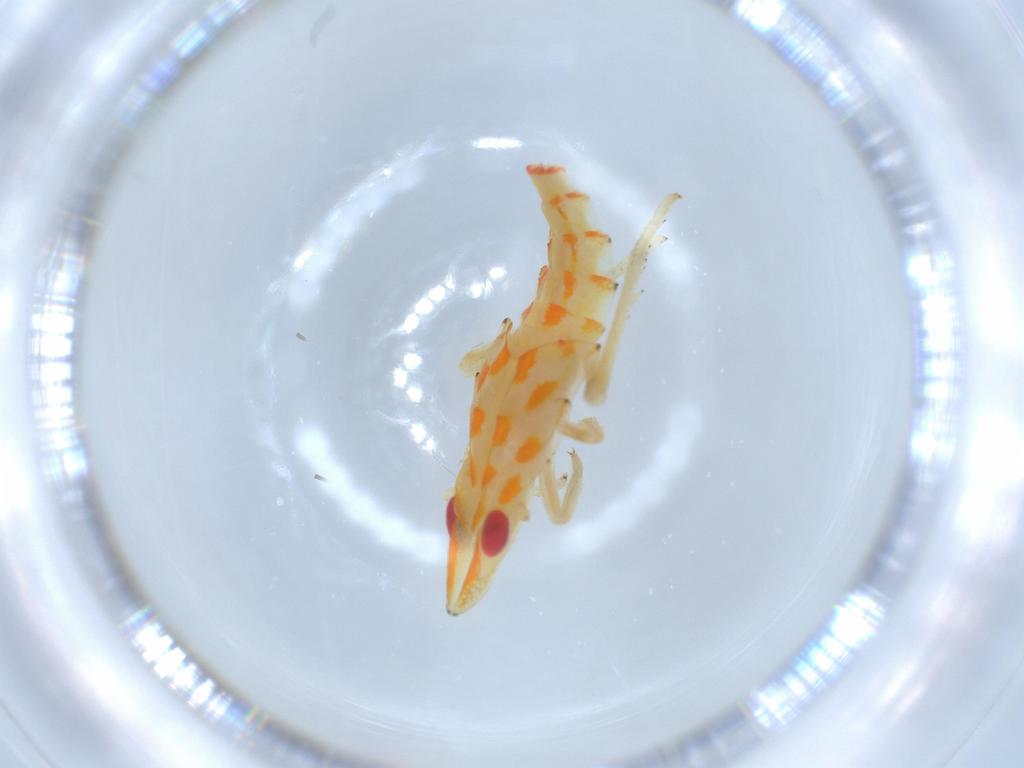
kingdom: Animalia
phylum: Arthropoda
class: Insecta
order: Hemiptera
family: Tropiduchidae
